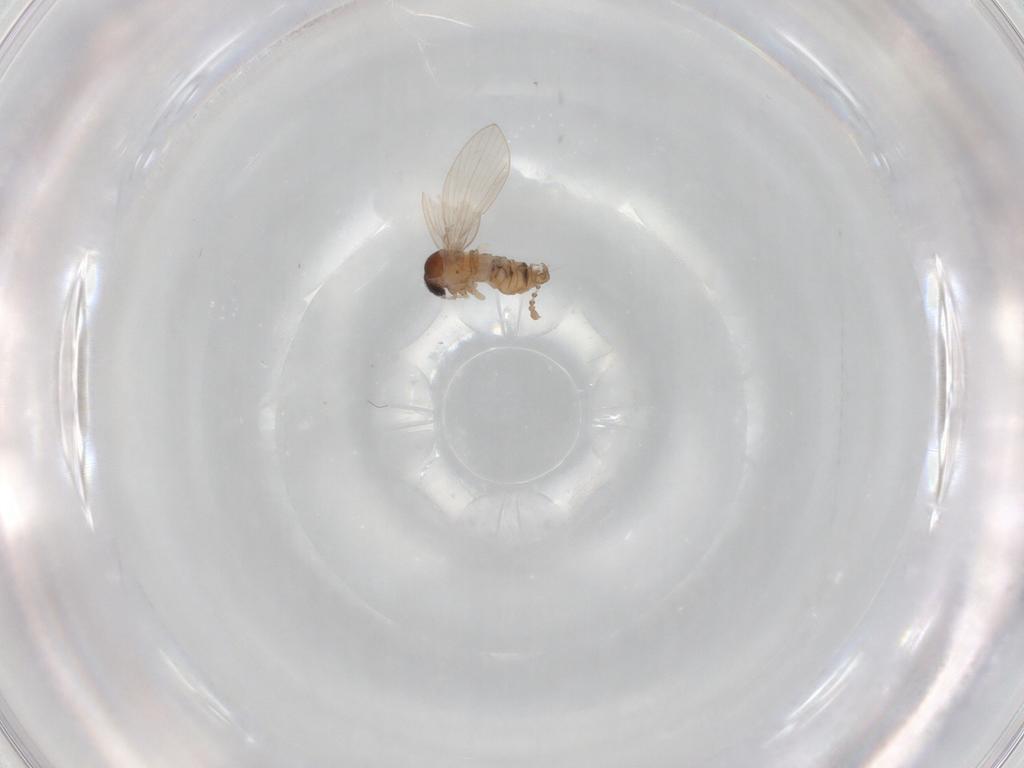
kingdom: Animalia
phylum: Arthropoda
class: Insecta
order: Diptera
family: Psychodidae
